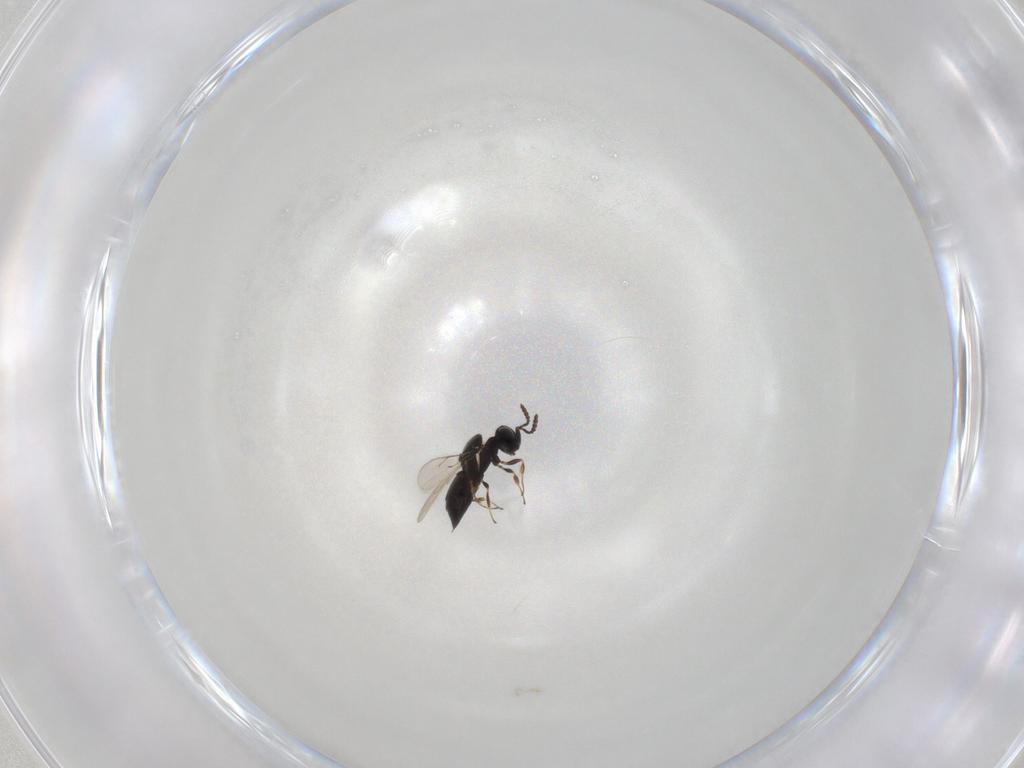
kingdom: Animalia
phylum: Arthropoda
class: Insecta
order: Hymenoptera
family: Scelionidae
